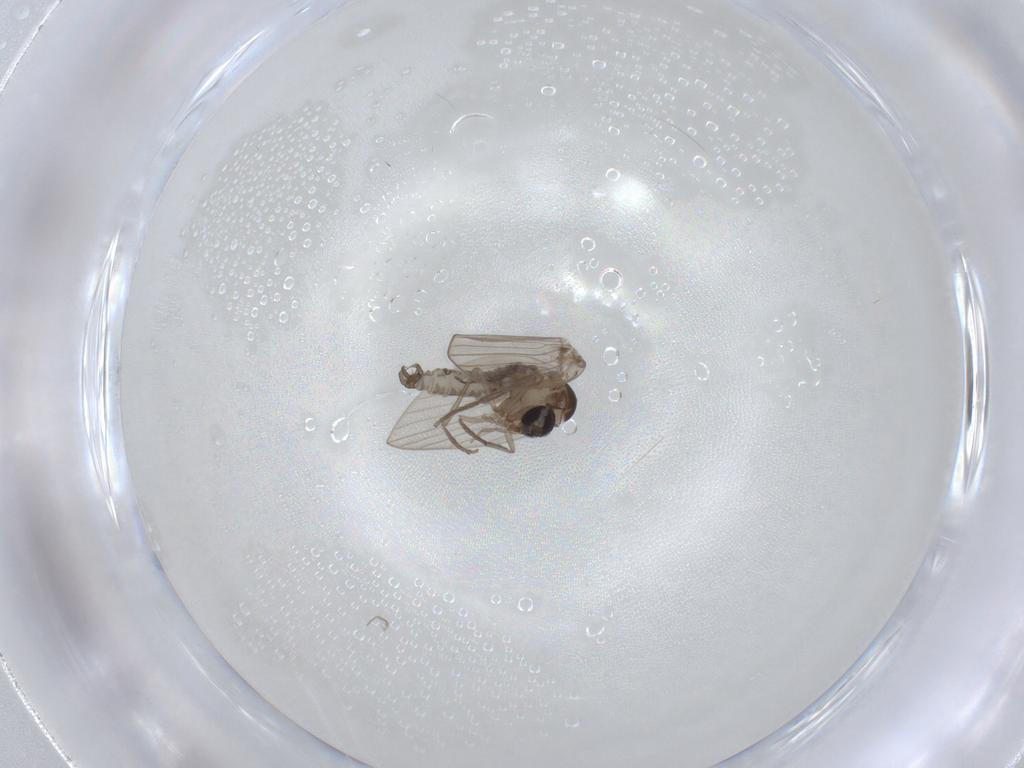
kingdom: Animalia
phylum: Arthropoda
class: Insecta
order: Diptera
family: Psychodidae
